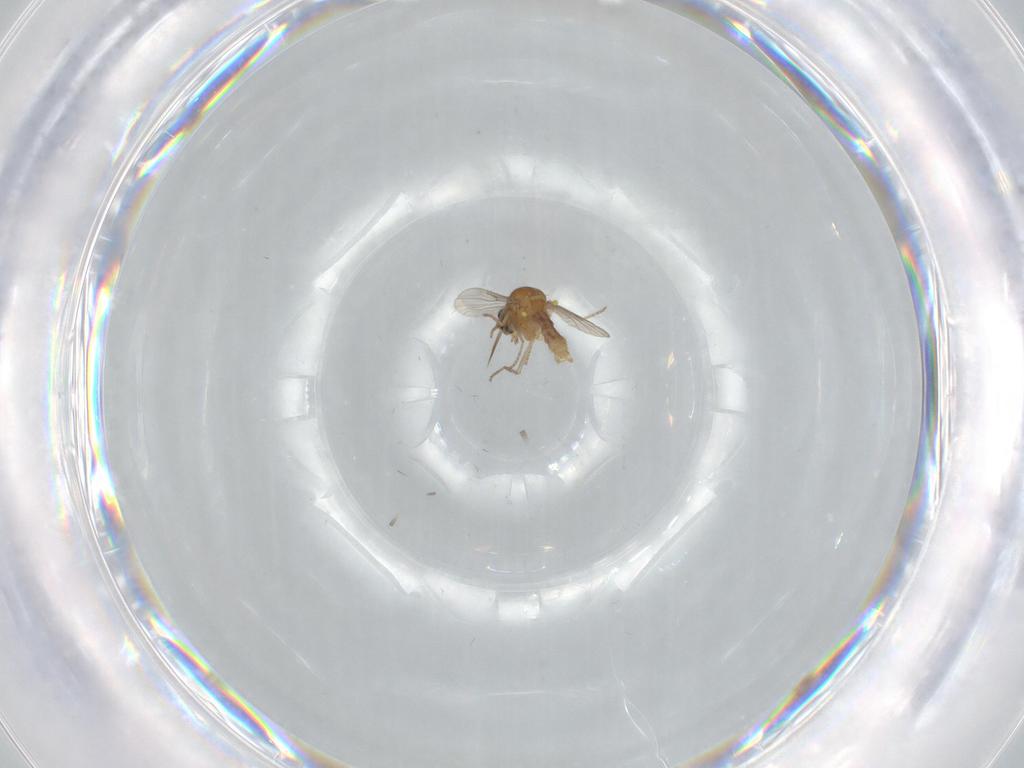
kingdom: Animalia
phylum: Arthropoda
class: Insecta
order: Diptera
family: Ceratopogonidae
